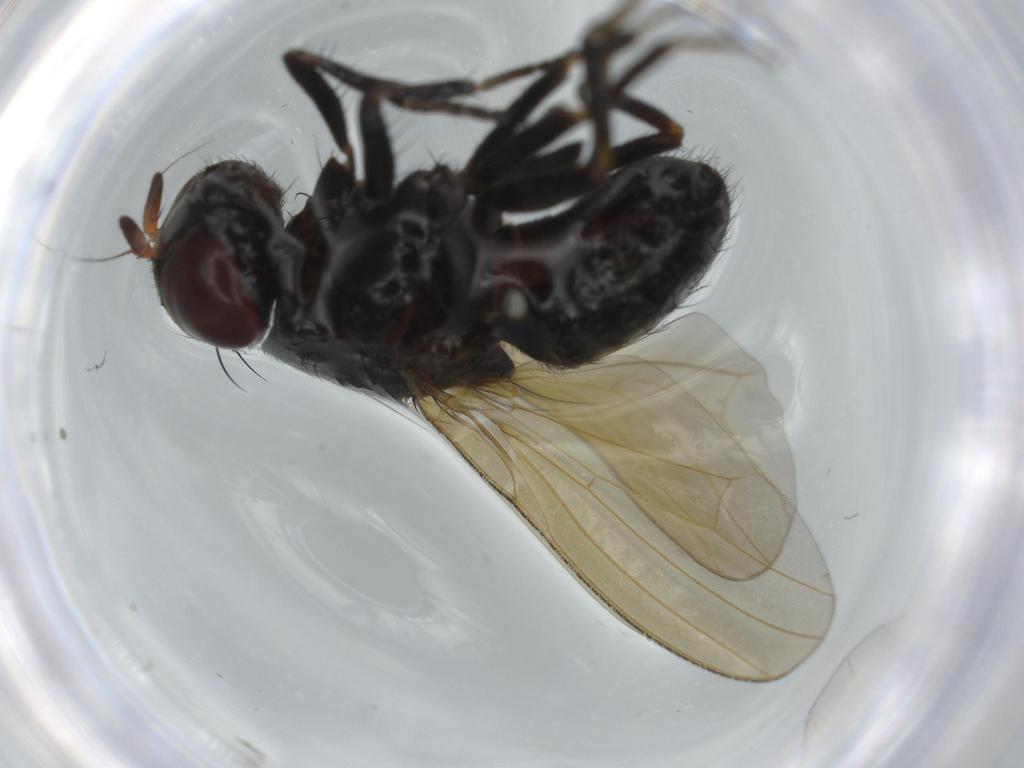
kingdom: Animalia
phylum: Arthropoda
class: Insecta
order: Diptera
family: Lauxaniidae
